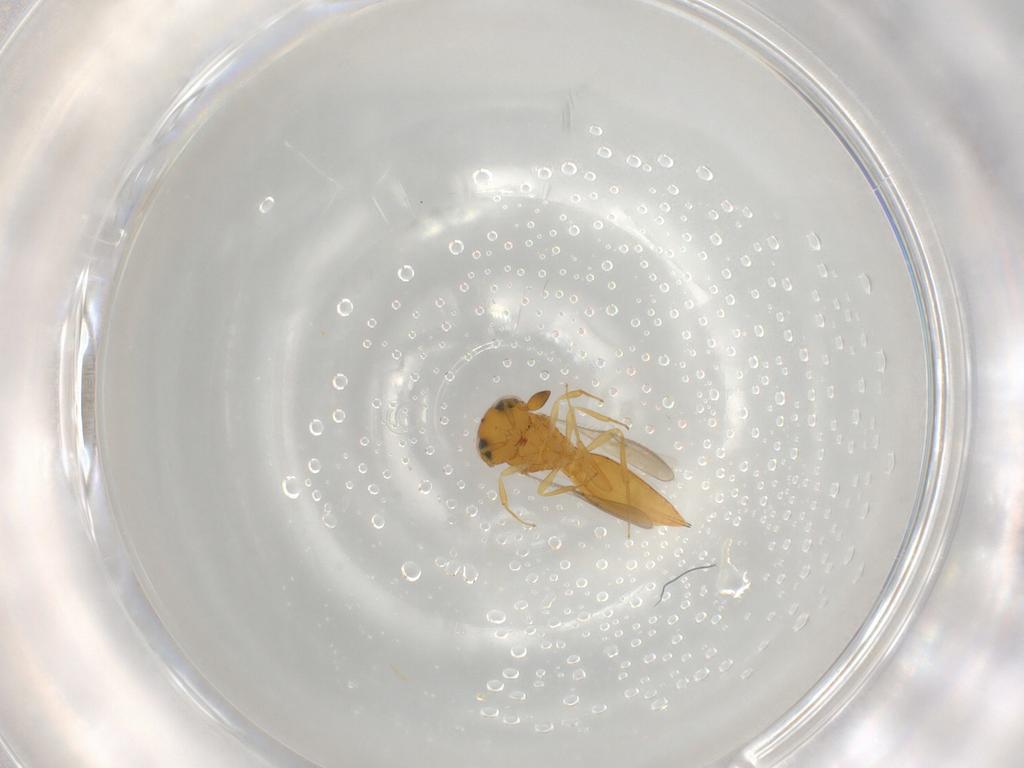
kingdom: Animalia
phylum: Arthropoda
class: Insecta
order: Hymenoptera
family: Scelionidae
